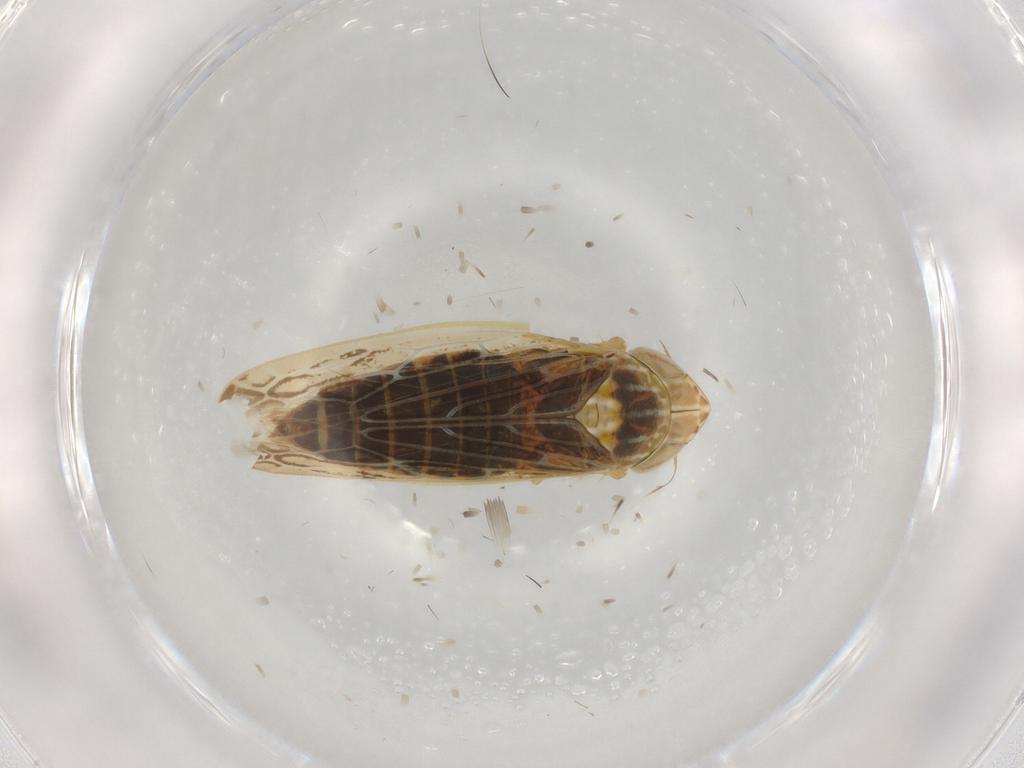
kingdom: Animalia
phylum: Arthropoda
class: Insecta
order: Hemiptera
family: Cicadellidae
